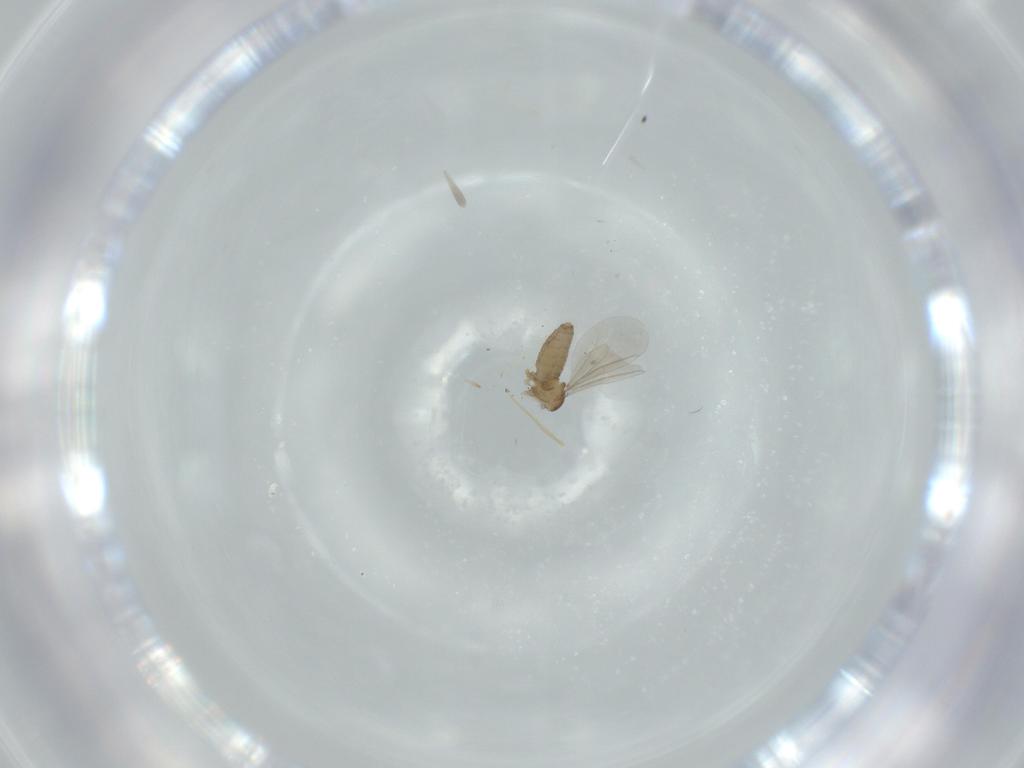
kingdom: Animalia
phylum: Arthropoda
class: Insecta
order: Diptera
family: Cecidomyiidae
